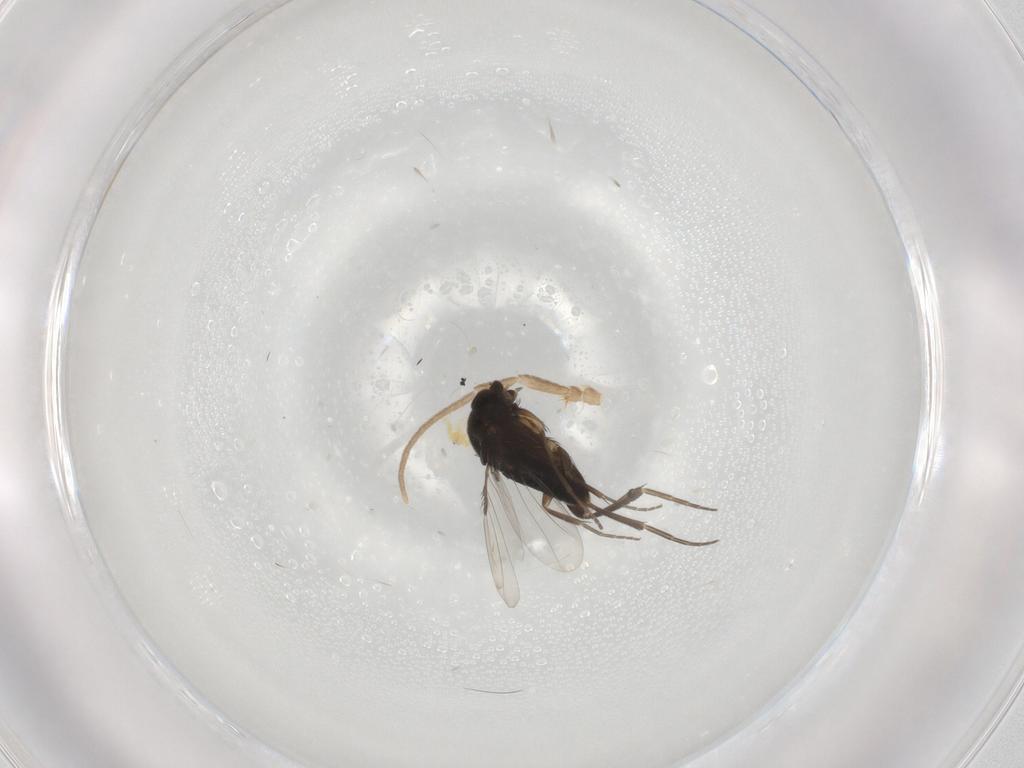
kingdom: Animalia
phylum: Arthropoda
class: Insecta
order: Diptera
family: Phoridae
